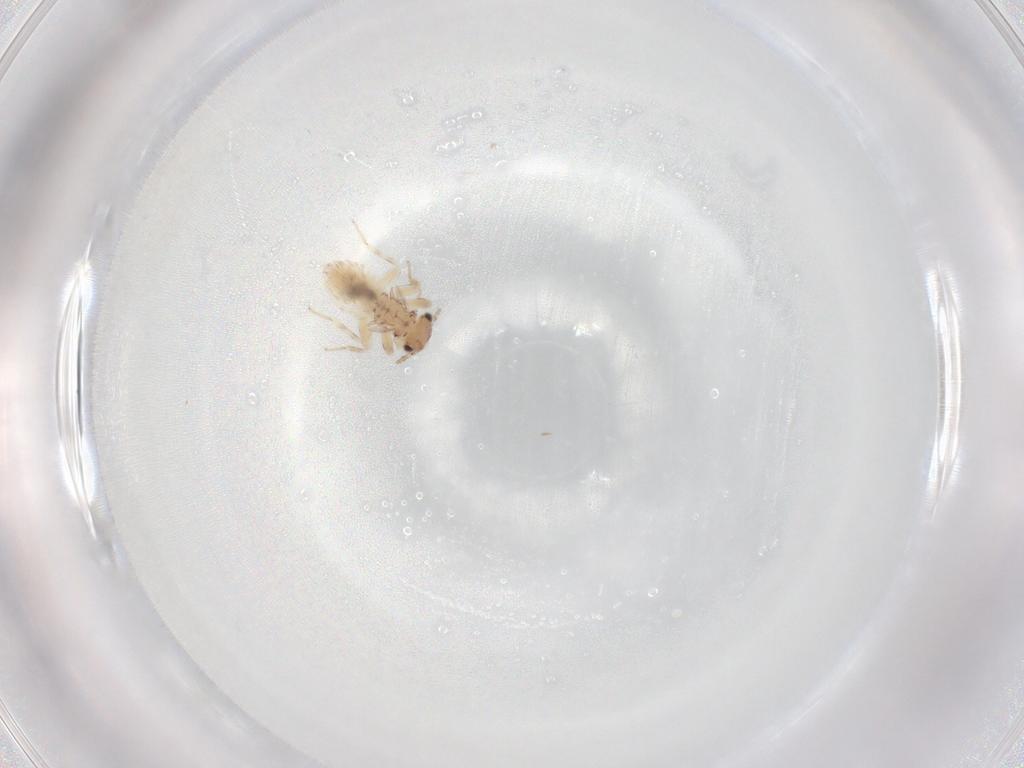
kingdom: Animalia
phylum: Arthropoda
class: Insecta
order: Psocodea
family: Lepidopsocidae
